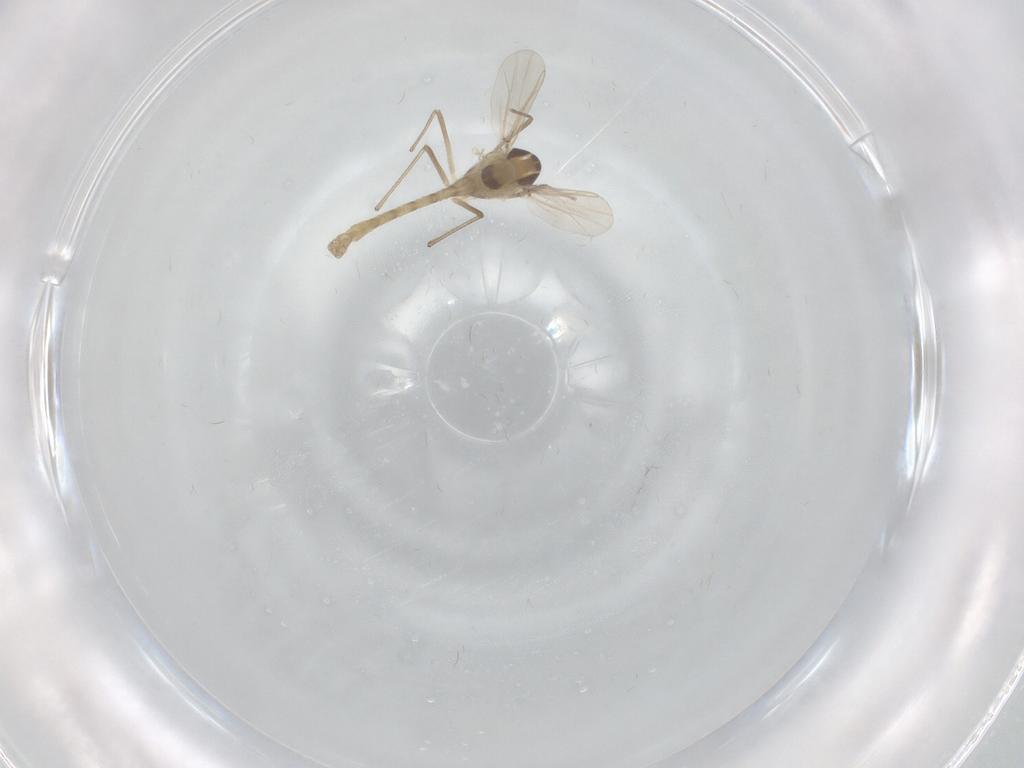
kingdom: Animalia
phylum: Arthropoda
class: Insecta
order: Diptera
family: Chironomidae
